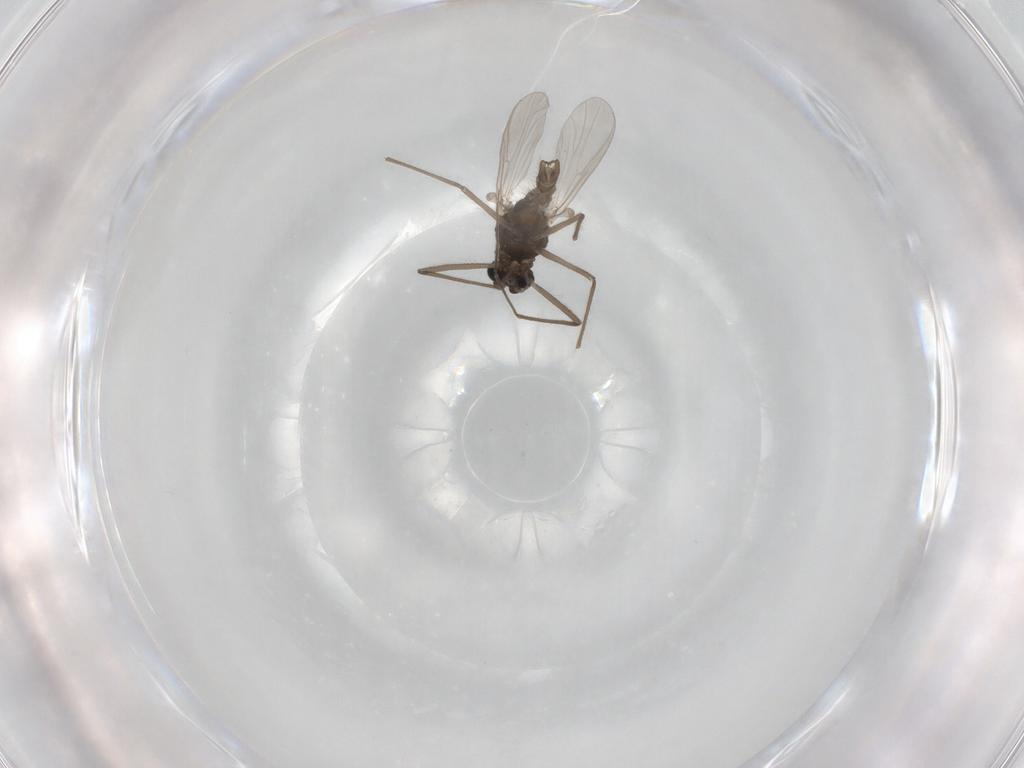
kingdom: Animalia
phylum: Arthropoda
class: Insecta
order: Diptera
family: Chironomidae
